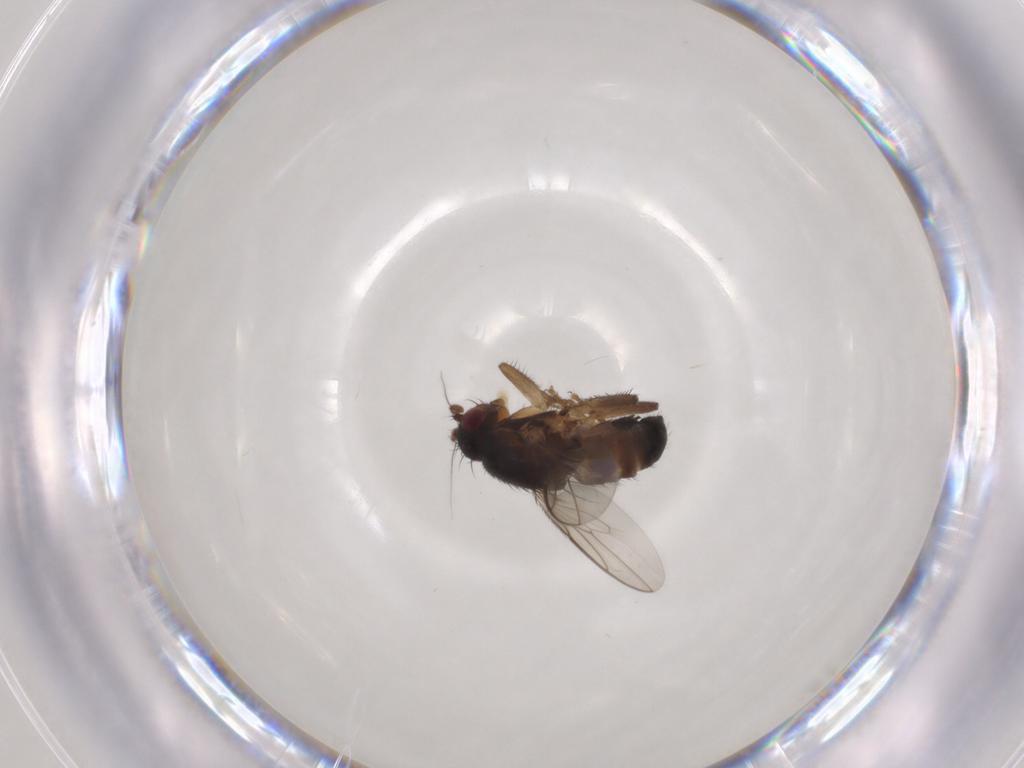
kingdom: Animalia
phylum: Arthropoda
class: Insecta
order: Diptera
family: Sphaeroceridae
